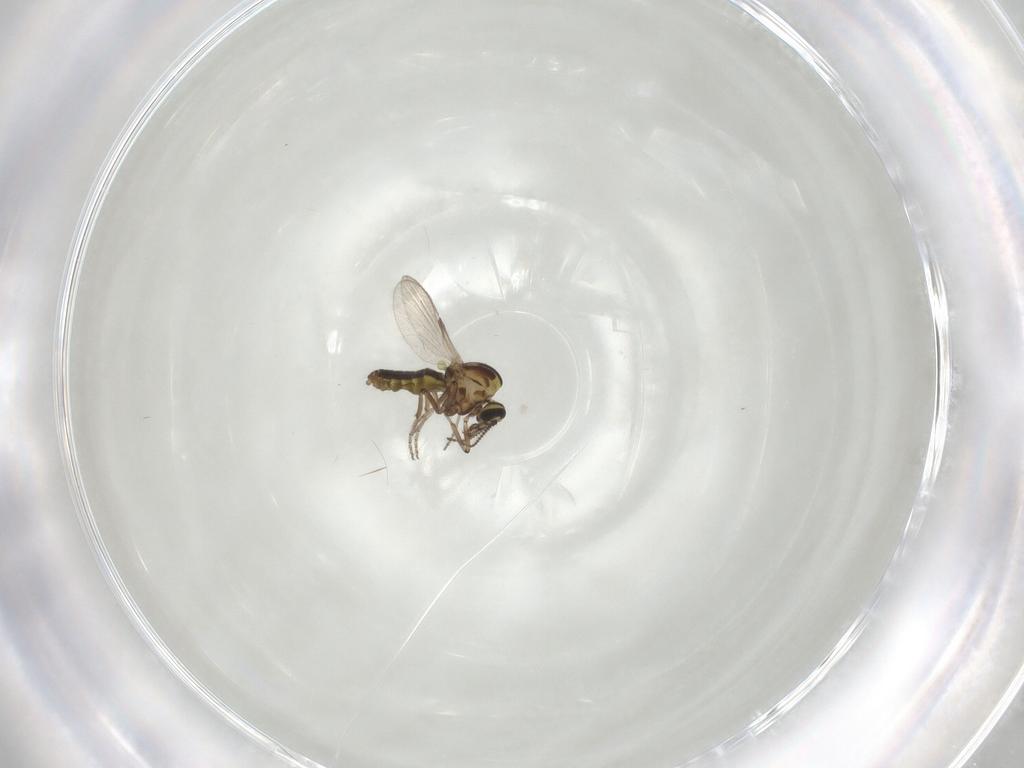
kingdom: Animalia
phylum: Arthropoda
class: Insecta
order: Diptera
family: Ceratopogonidae
